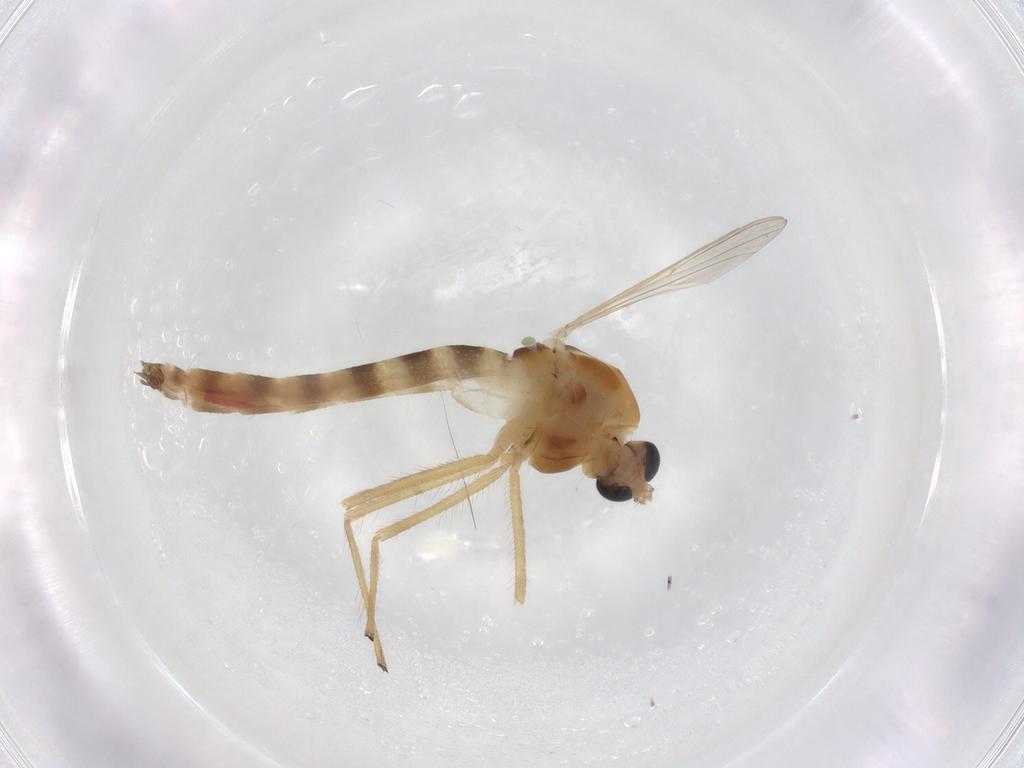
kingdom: Animalia
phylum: Arthropoda
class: Insecta
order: Diptera
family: Chironomidae
